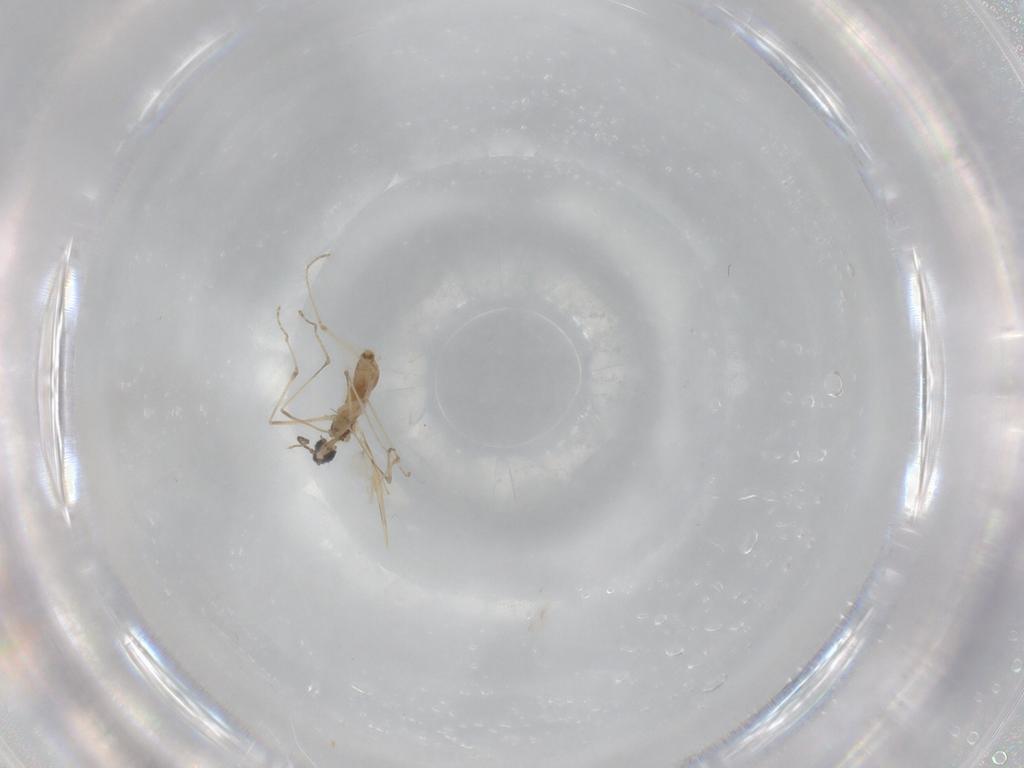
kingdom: Animalia
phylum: Arthropoda
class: Insecta
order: Diptera
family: Cecidomyiidae
